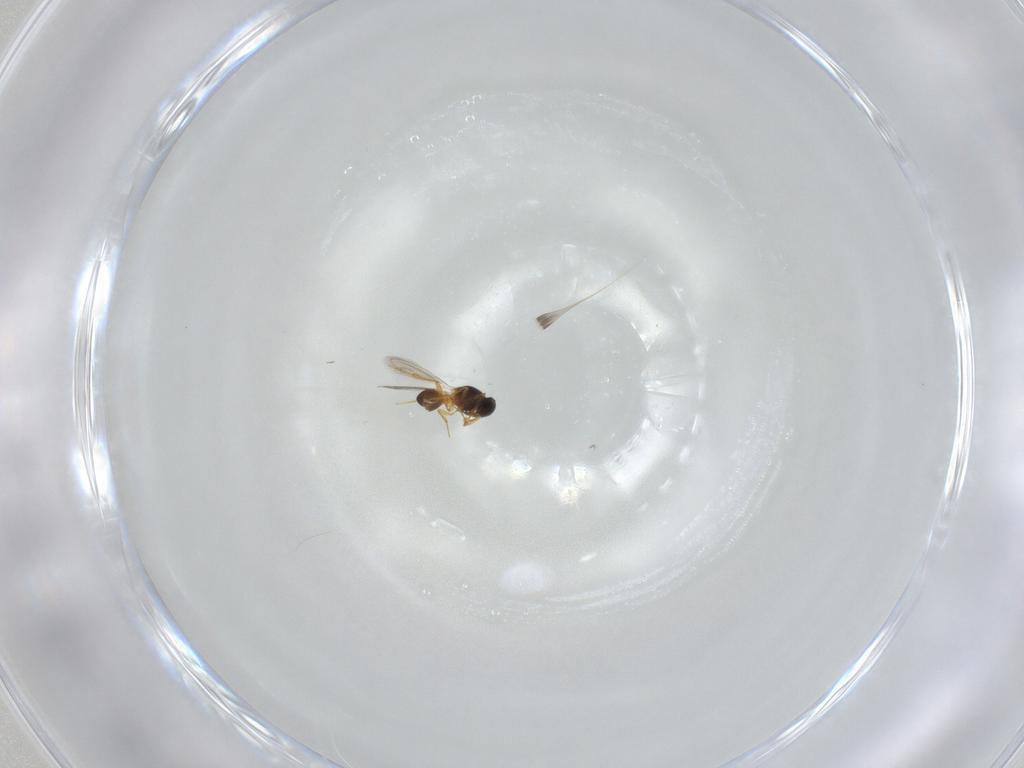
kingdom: Animalia
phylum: Arthropoda
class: Insecta
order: Hymenoptera
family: Platygastridae
